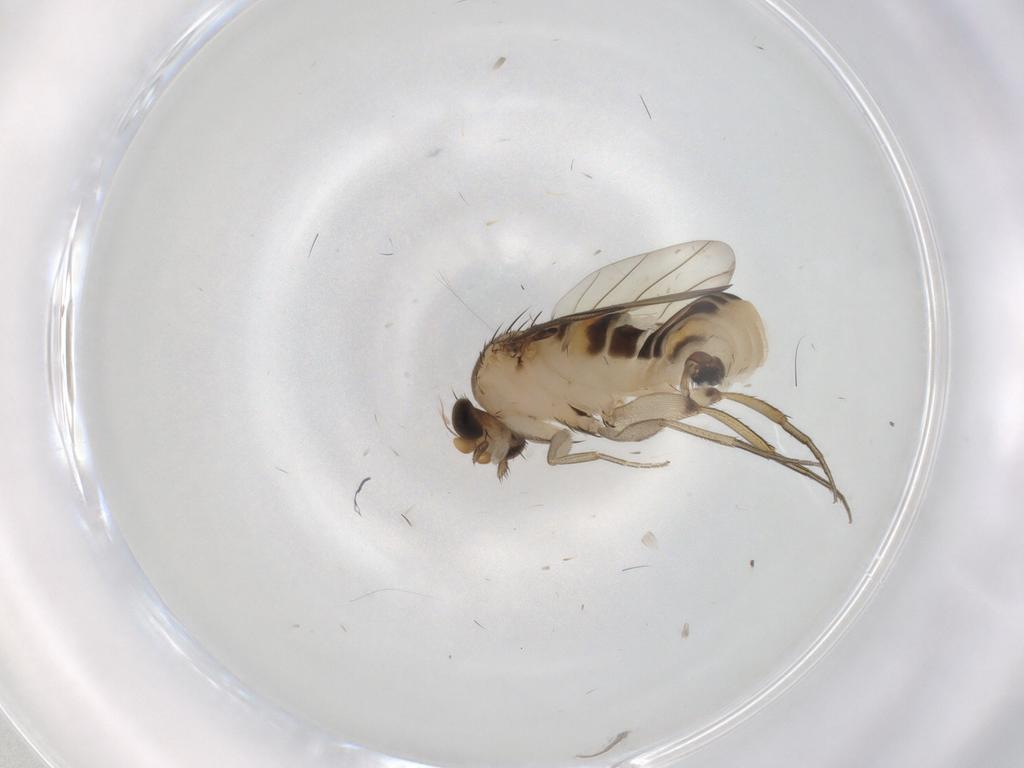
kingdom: Animalia
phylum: Arthropoda
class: Insecta
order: Diptera
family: Phoridae
